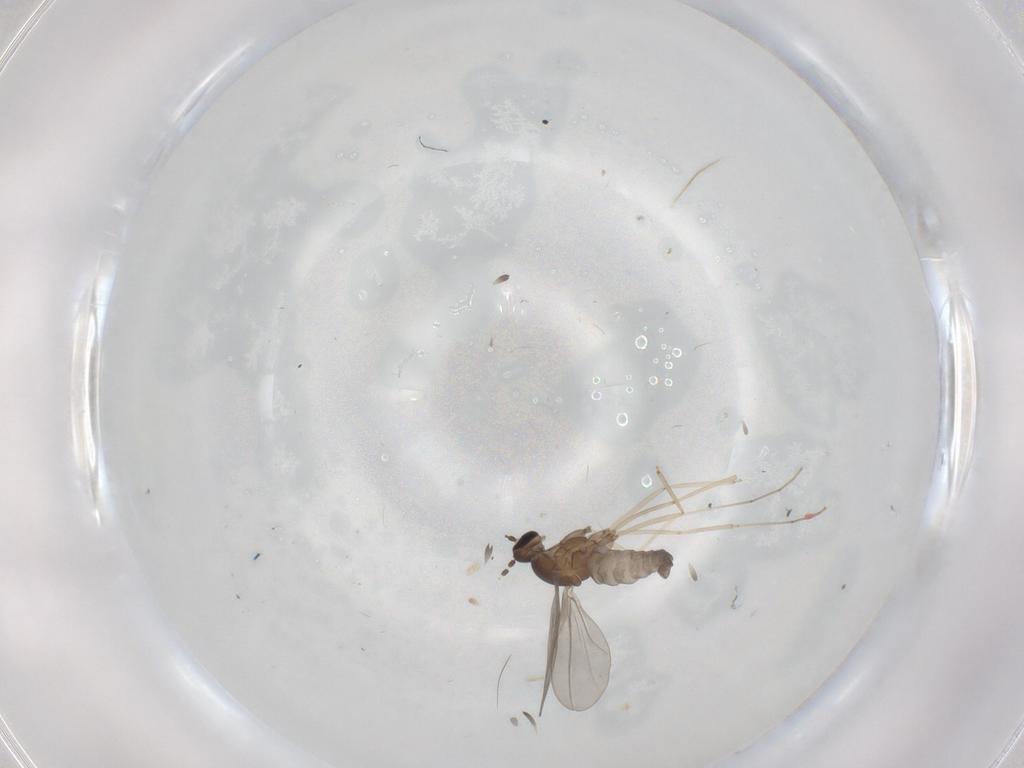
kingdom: Animalia
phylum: Arthropoda
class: Insecta
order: Diptera
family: Cecidomyiidae
